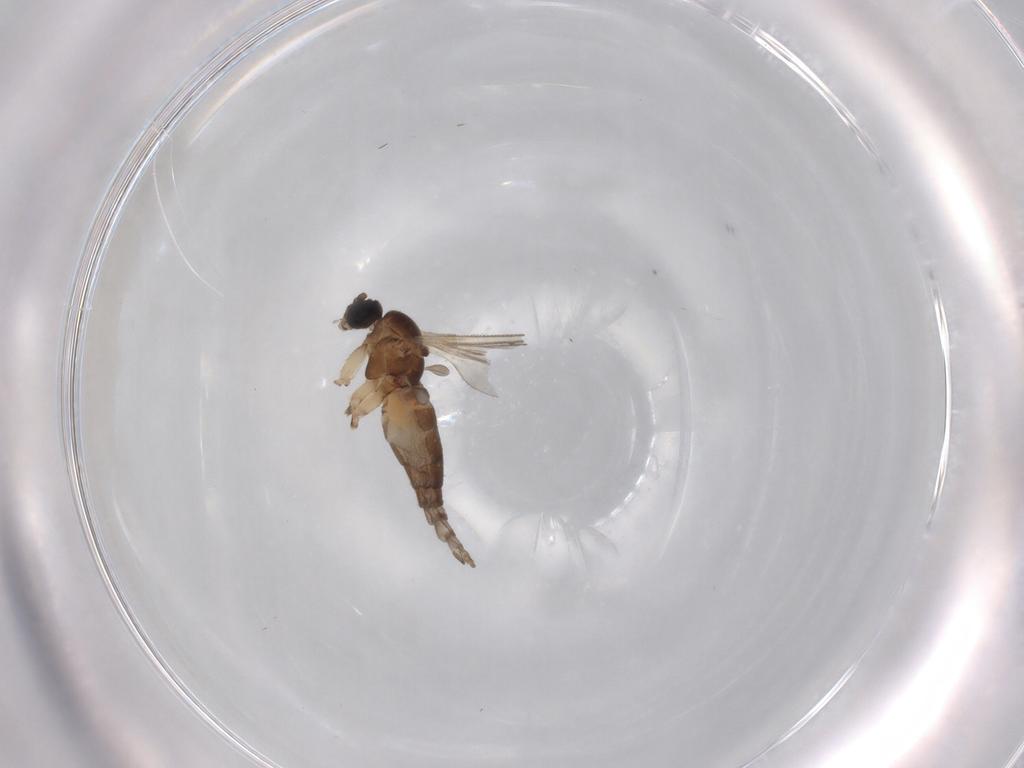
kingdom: Animalia
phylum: Arthropoda
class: Insecta
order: Diptera
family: Sciaridae
